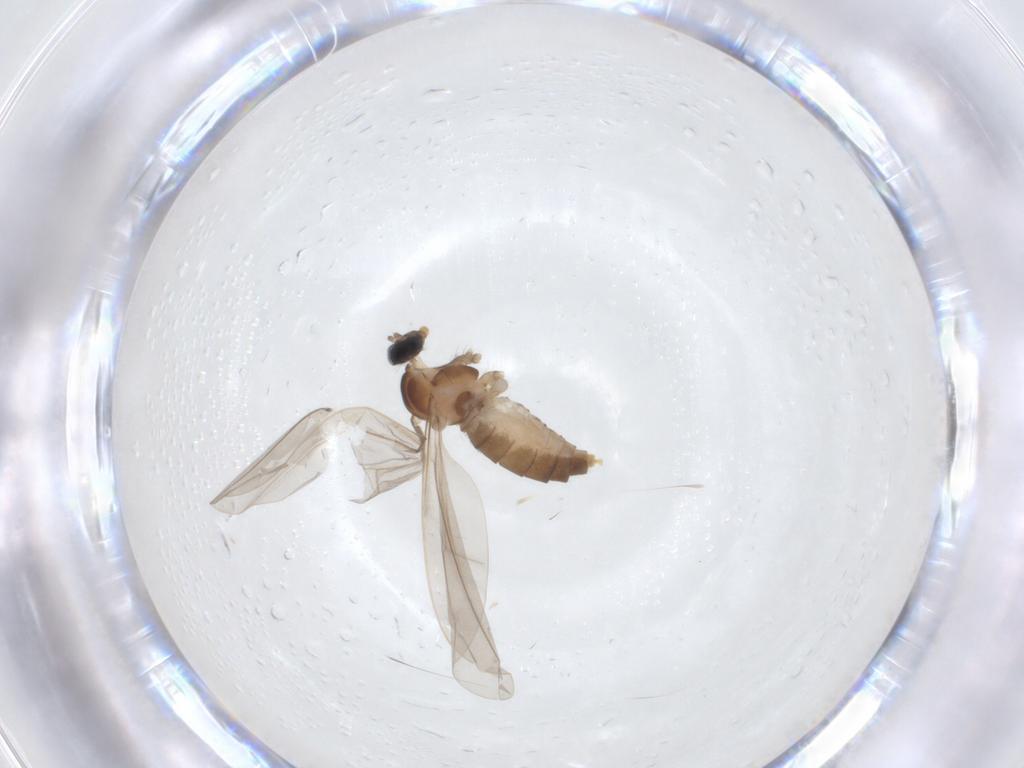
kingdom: Animalia
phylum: Arthropoda
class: Insecta
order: Diptera
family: Cecidomyiidae
